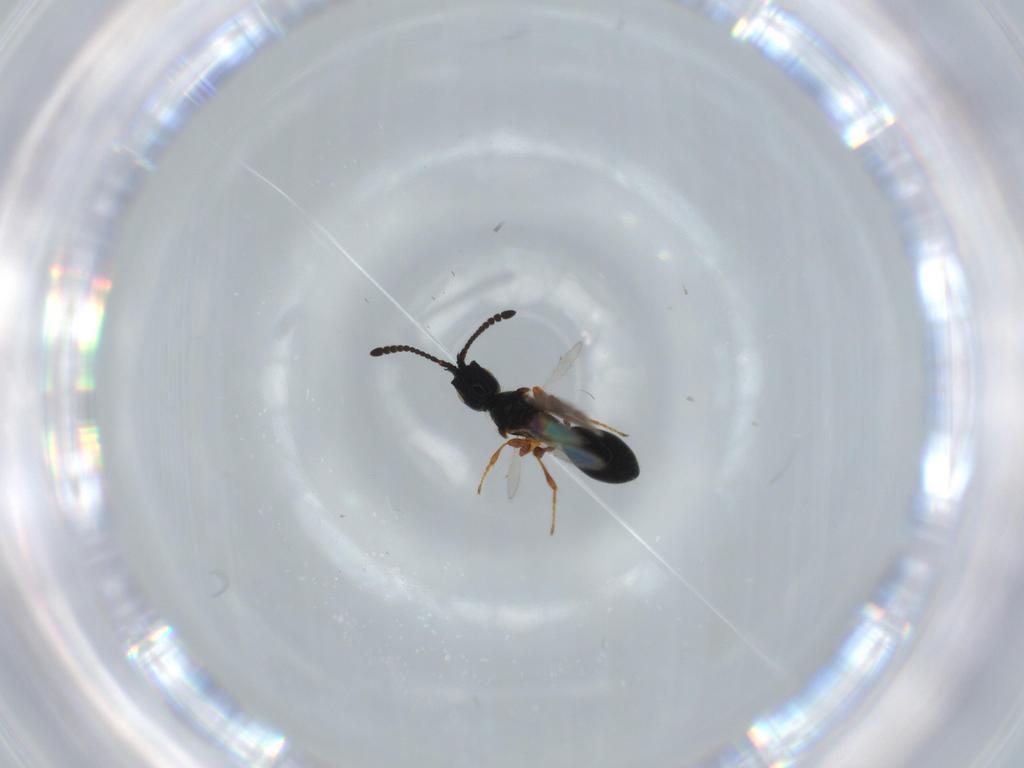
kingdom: Animalia
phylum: Arthropoda
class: Insecta
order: Hymenoptera
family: Diapriidae
